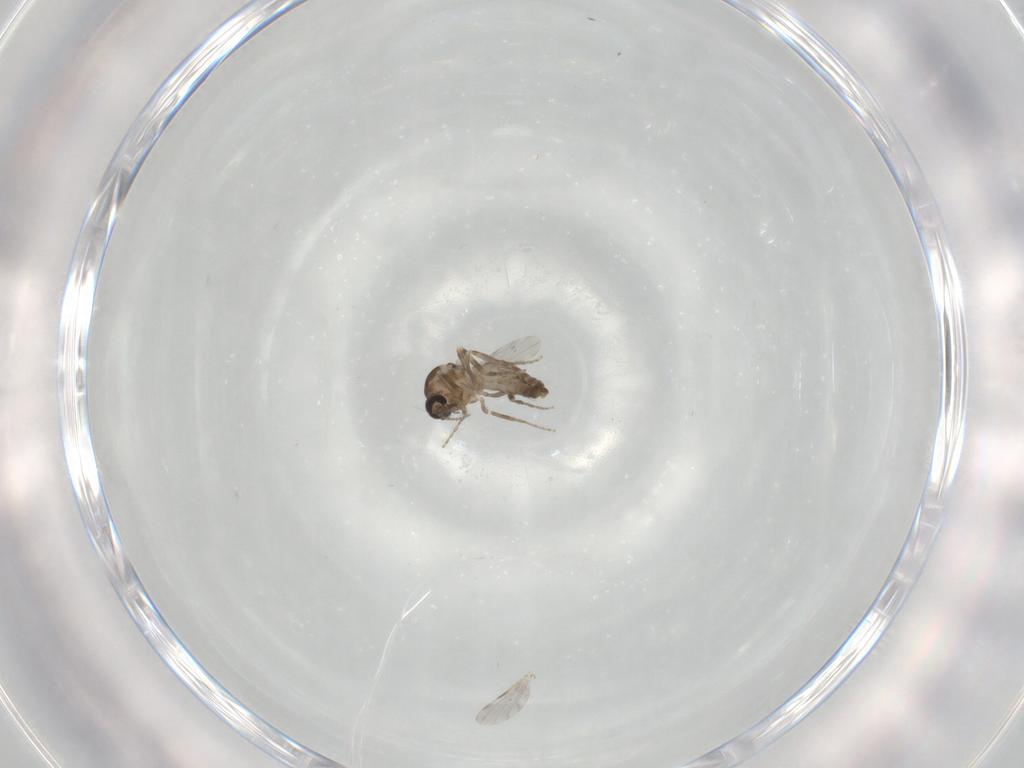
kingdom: Animalia
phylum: Arthropoda
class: Insecta
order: Diptera
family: Ceratopogonidae
